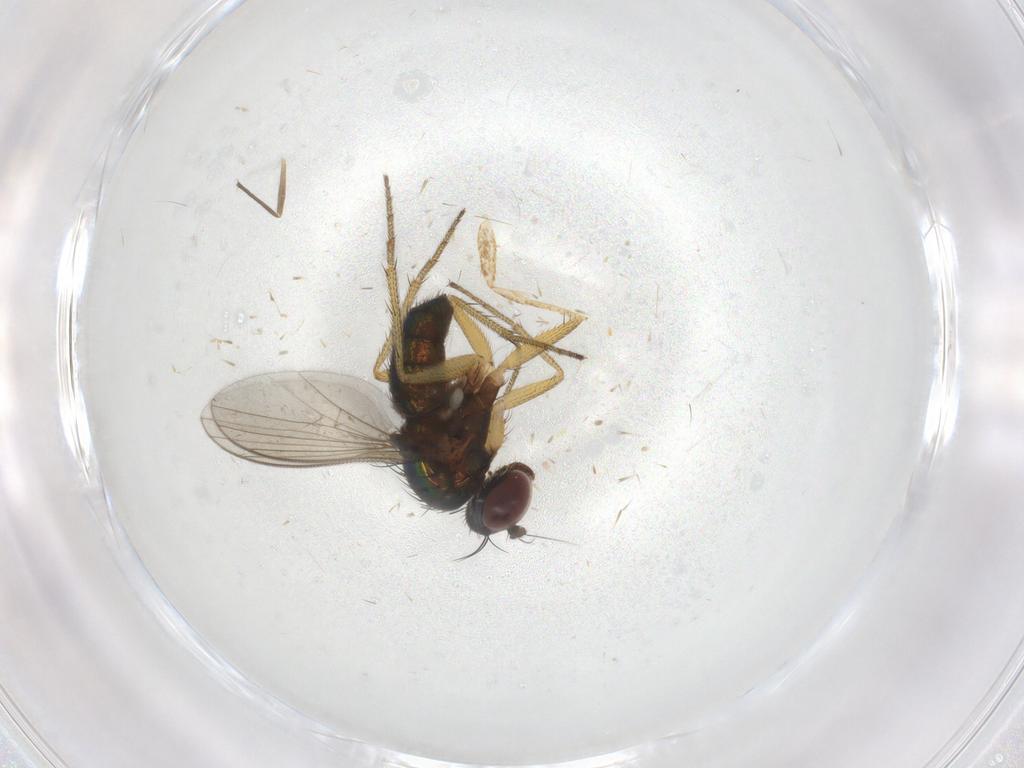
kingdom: Animalia
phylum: Arthropoda
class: Insecta
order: Diptera
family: Dolichopodidae
